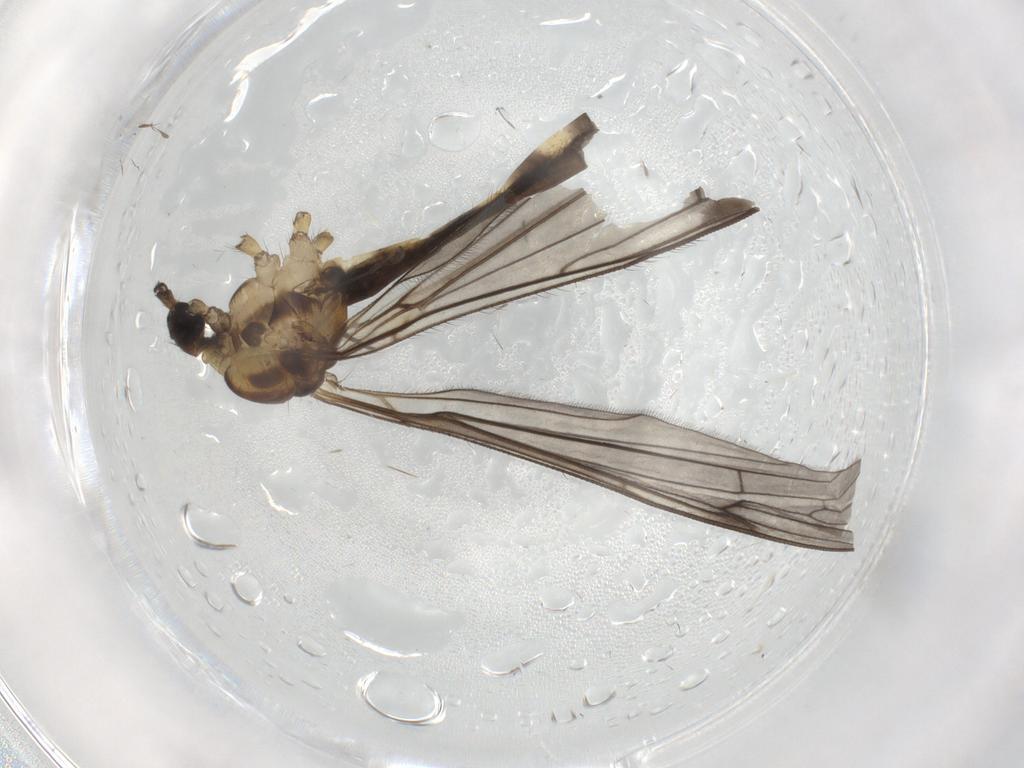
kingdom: Animalia
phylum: Arthropoda
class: Insecta
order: Diptera
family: Limoniidae
